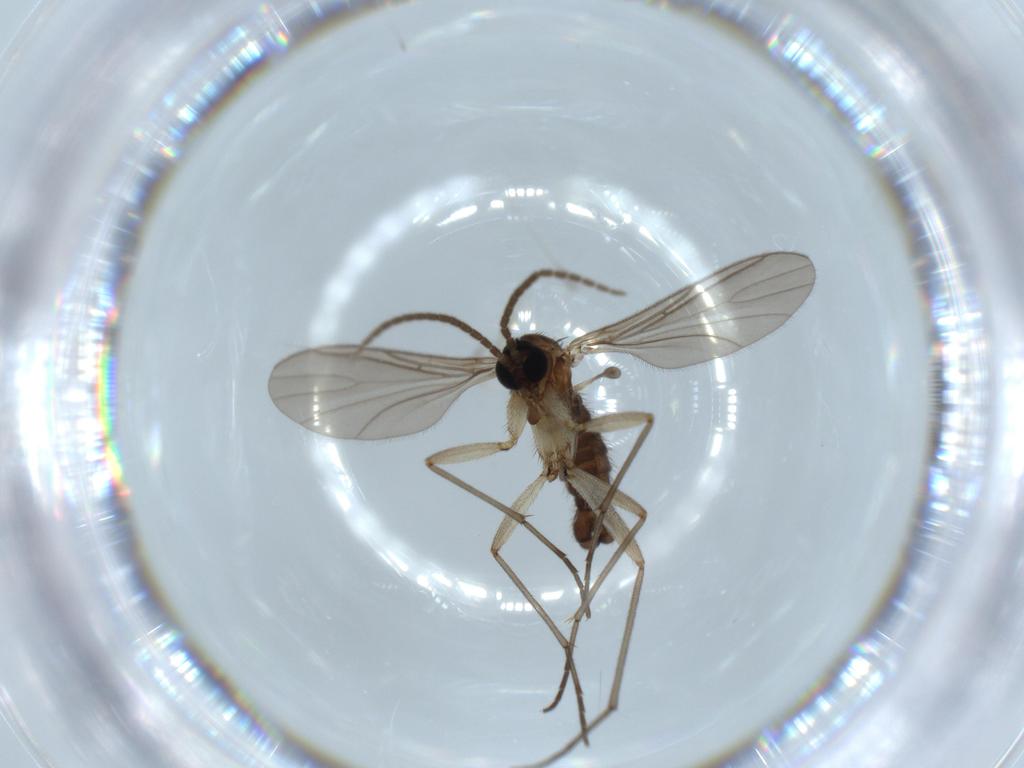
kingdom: Animalia
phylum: Arthropoda
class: Insecta
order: Diptera
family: Sciaridae
